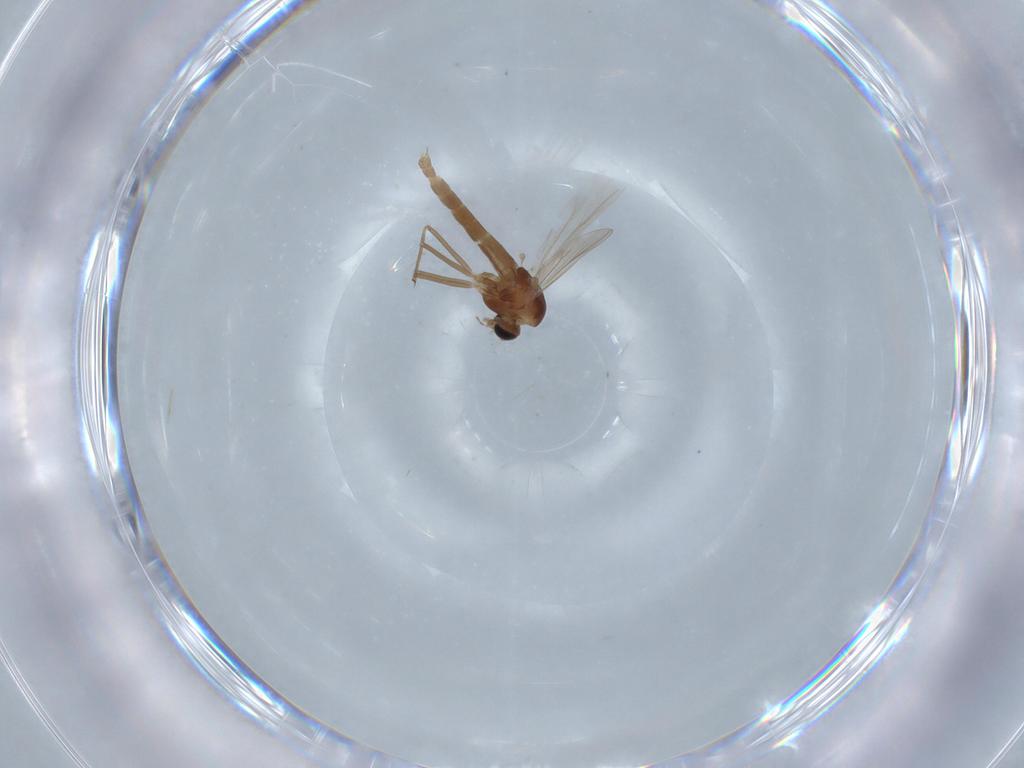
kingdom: Animalia
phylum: Arthropoda
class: Insecta
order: Diptera
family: Chironomidae
